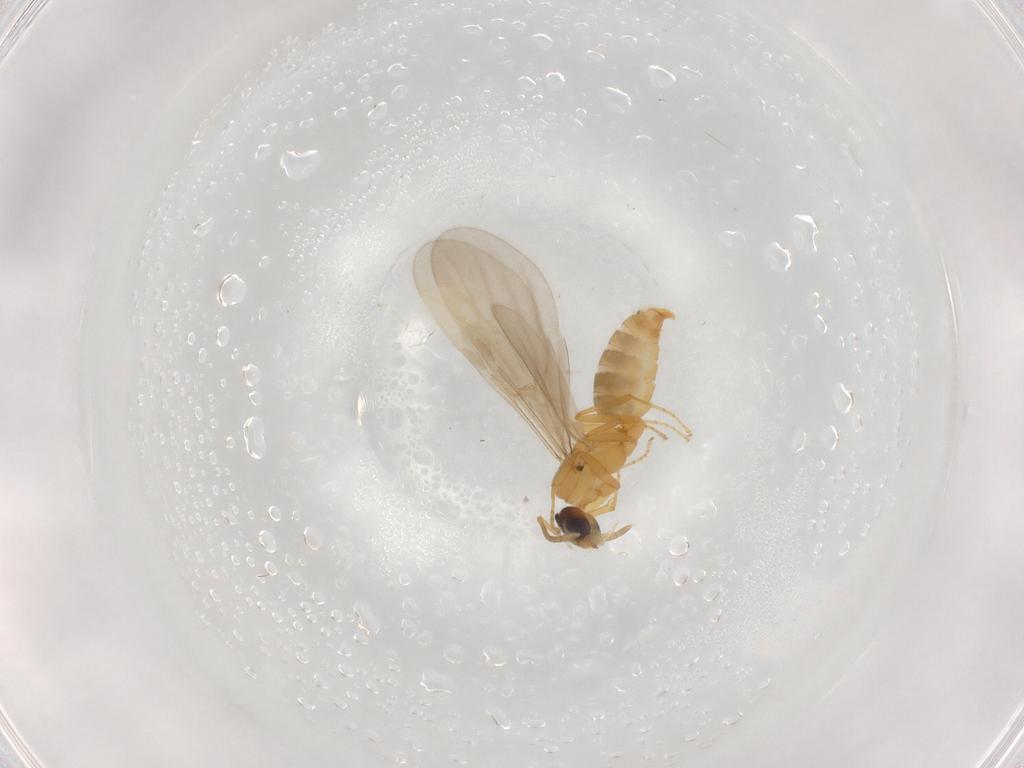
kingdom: Animalia
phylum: Arthropoda
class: Insecta
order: Hymenoptera
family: Formicidae
